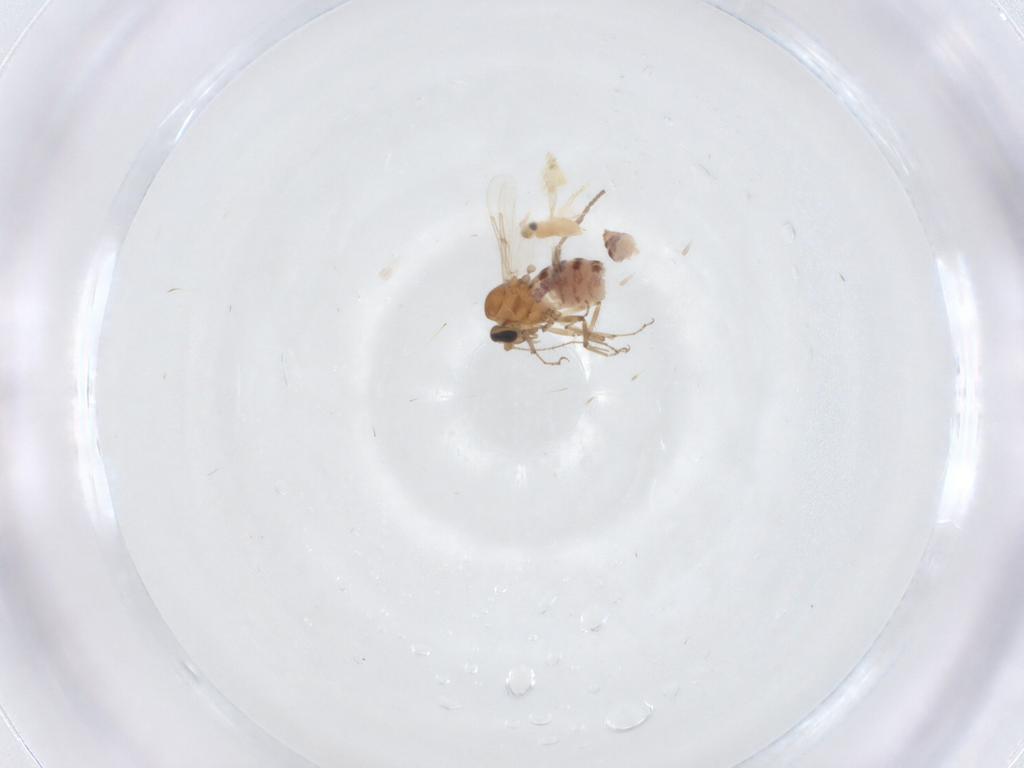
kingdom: Animalia
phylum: Arthropoda
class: Insecta
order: Diptera
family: Ceratopogonidae
